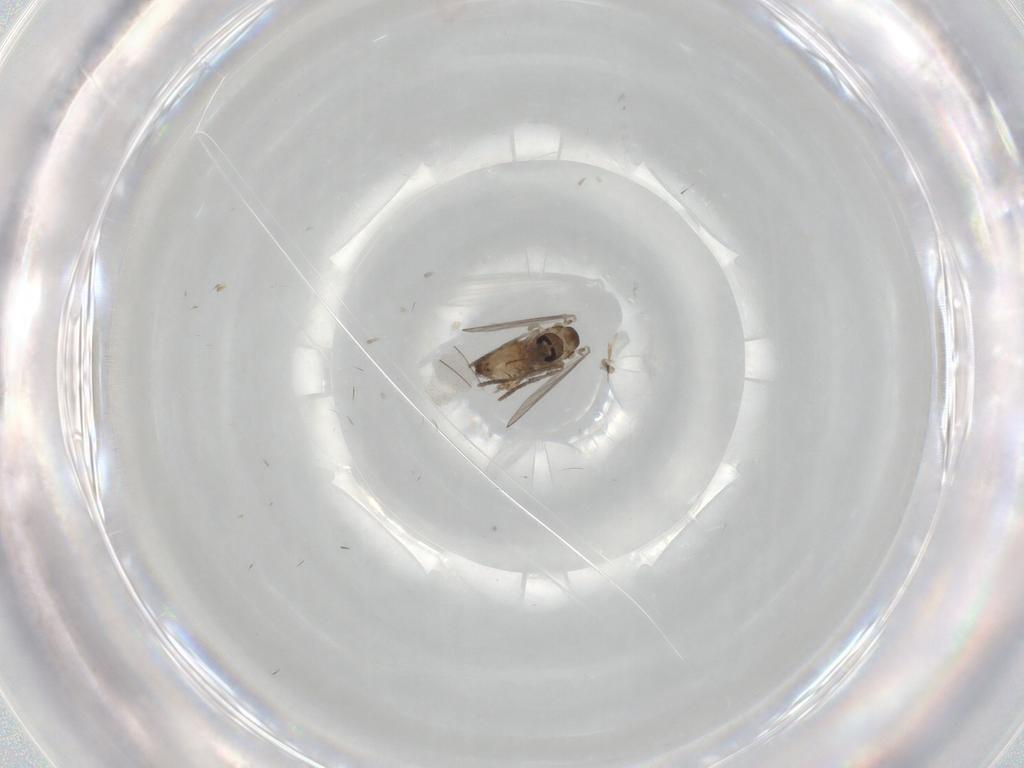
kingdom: Animalia
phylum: Arthropoda
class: Insecta
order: Diptera
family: Psychodidae
